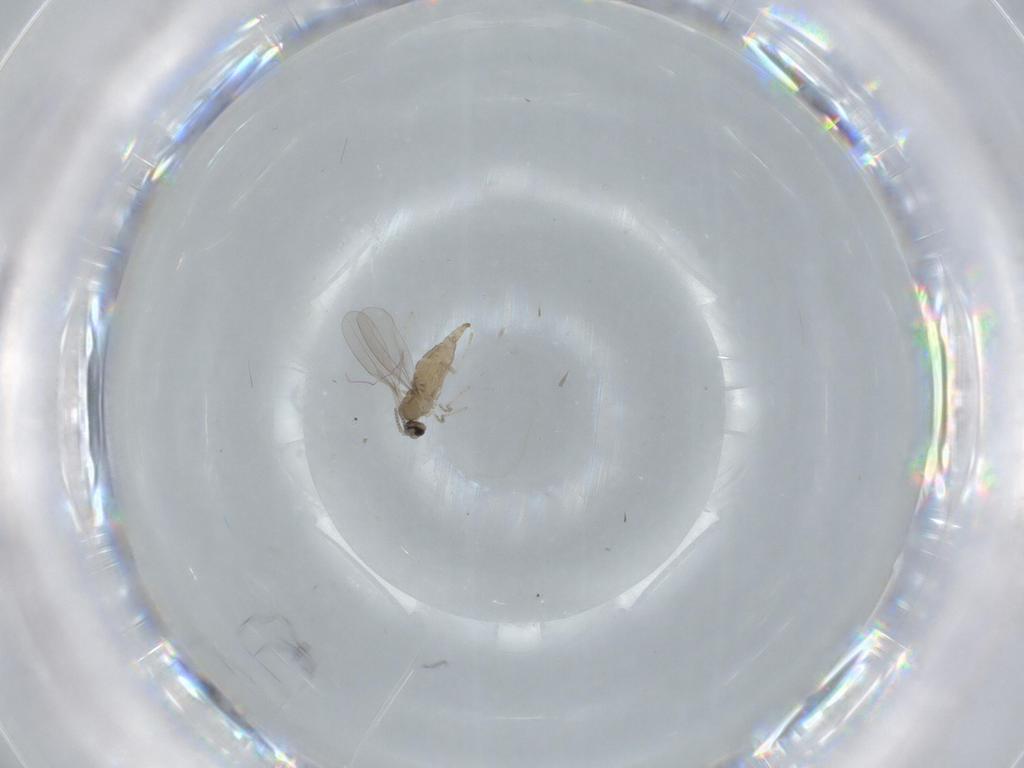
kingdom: Animalia
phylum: Arthropoda
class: Insecta
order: Diptera
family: Cecidomyiidae
